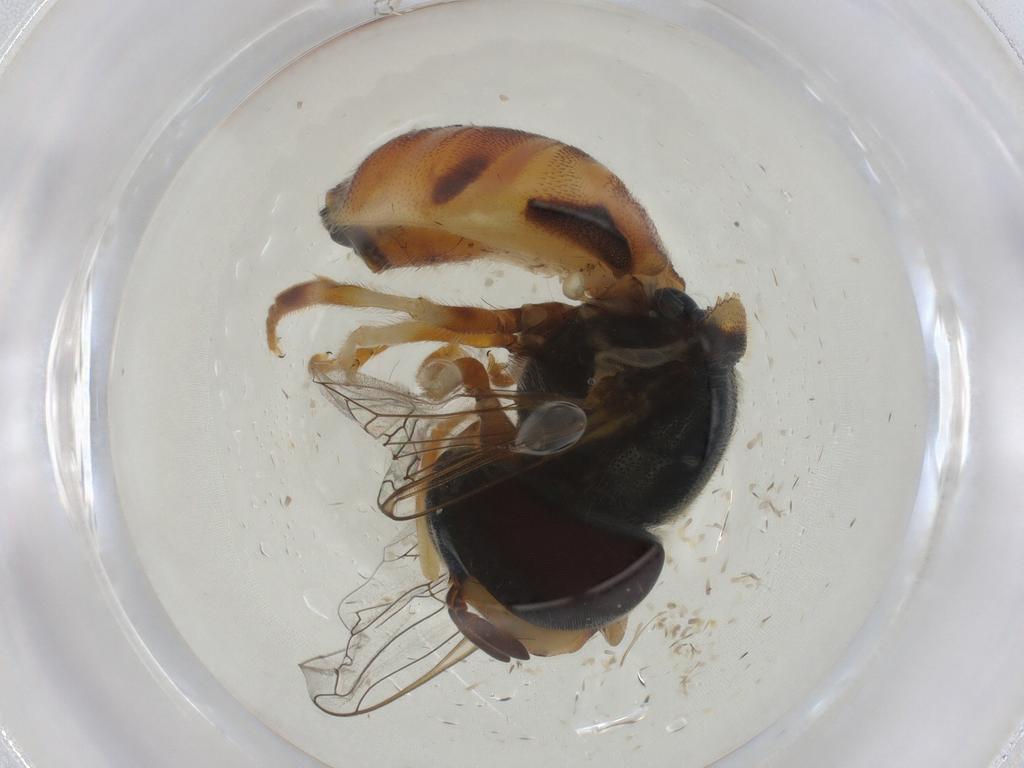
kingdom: Animalia
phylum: Arthropoda
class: Insecta
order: Diptera
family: Syrphidae
